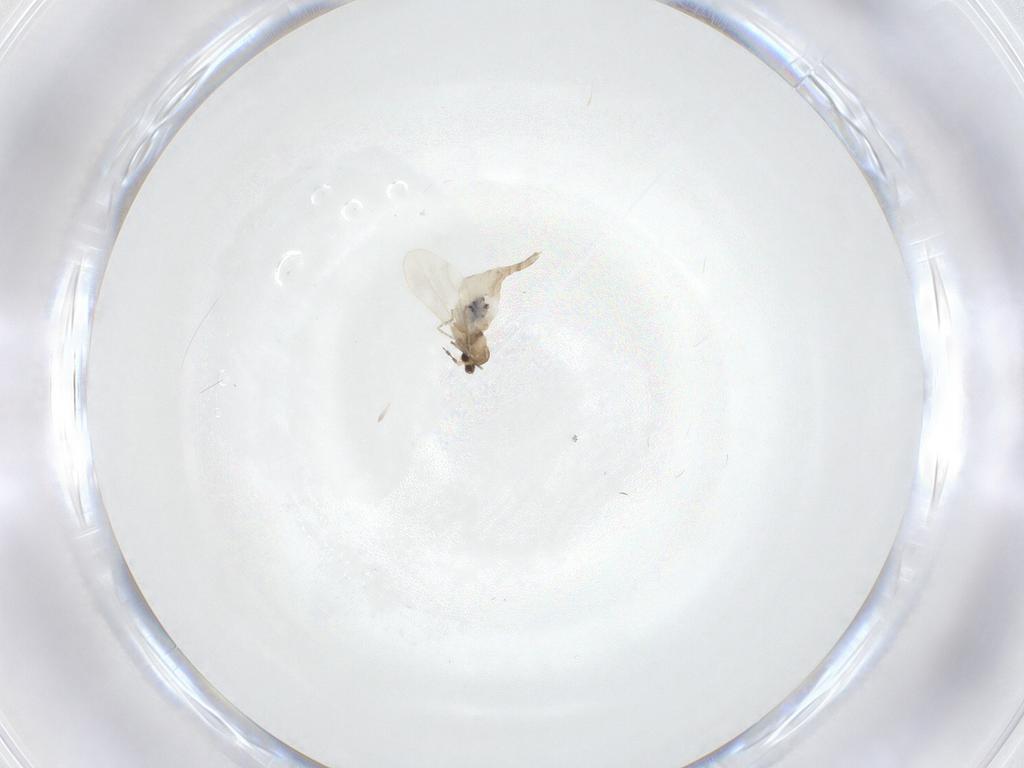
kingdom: Animalia
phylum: Arthropoda
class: Insecta
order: Diptera
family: Cecidomyiidae
